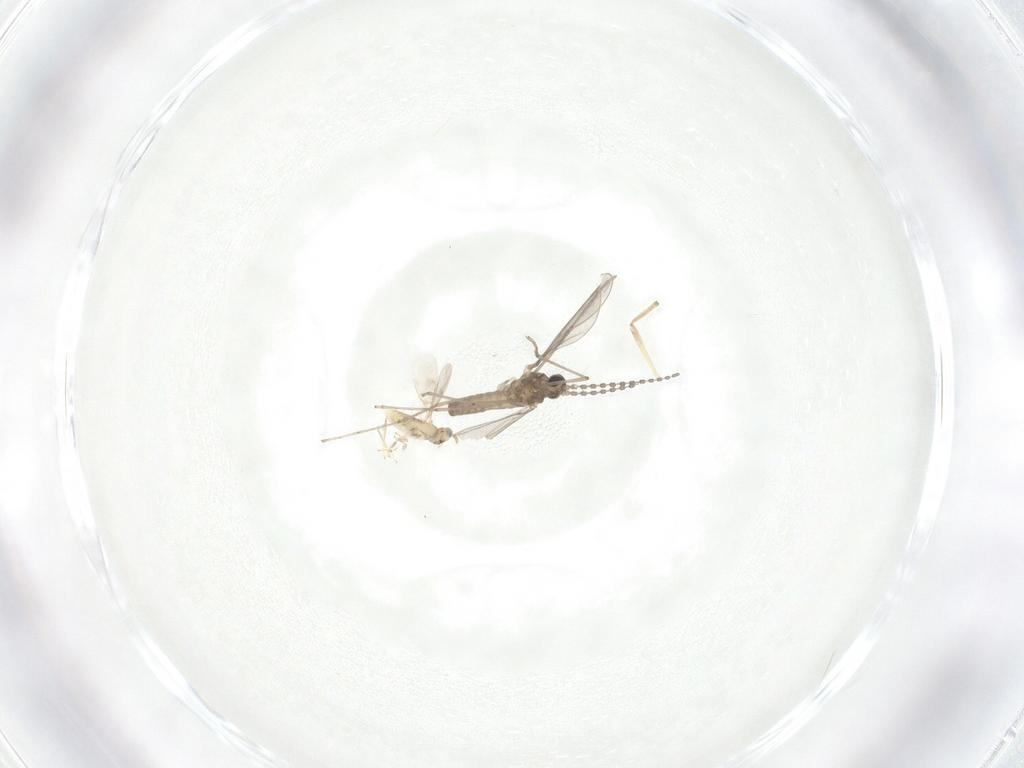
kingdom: Animalia
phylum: Arthropoda
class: Insecta
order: Diptera
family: Cecidomyiidae
